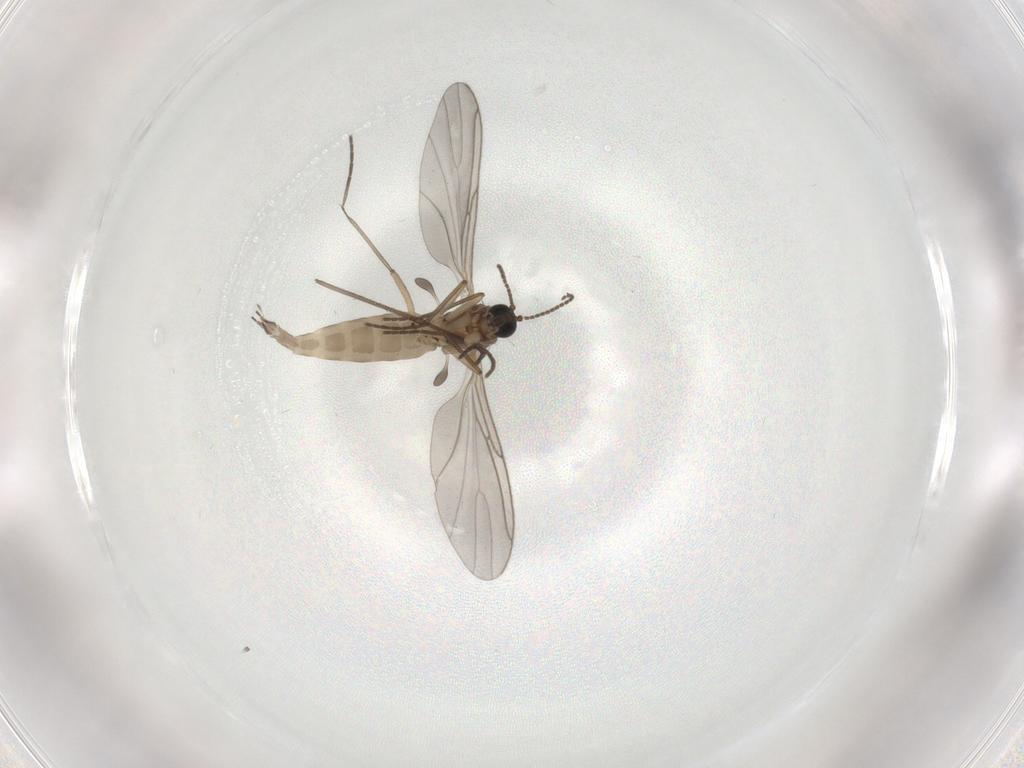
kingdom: Animalia
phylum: Arthropoda
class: Insecta
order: Diptera
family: Sciaridae
